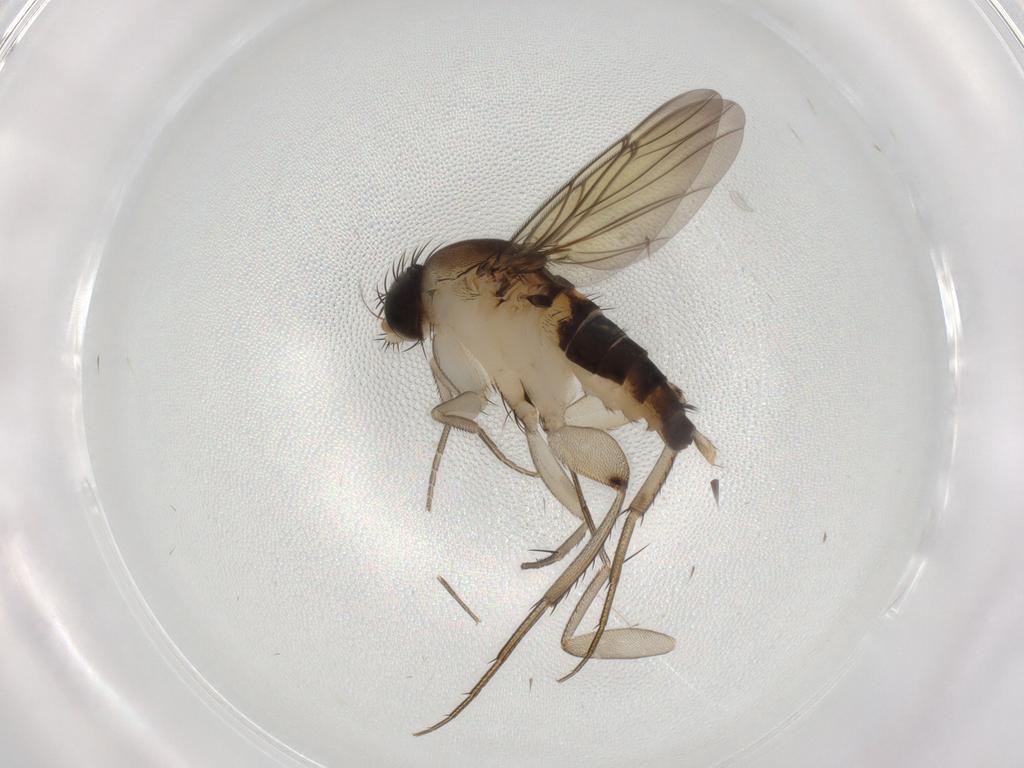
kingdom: Animalia
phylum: Arthropoda
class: Insecta
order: Diptera
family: Phoridae
